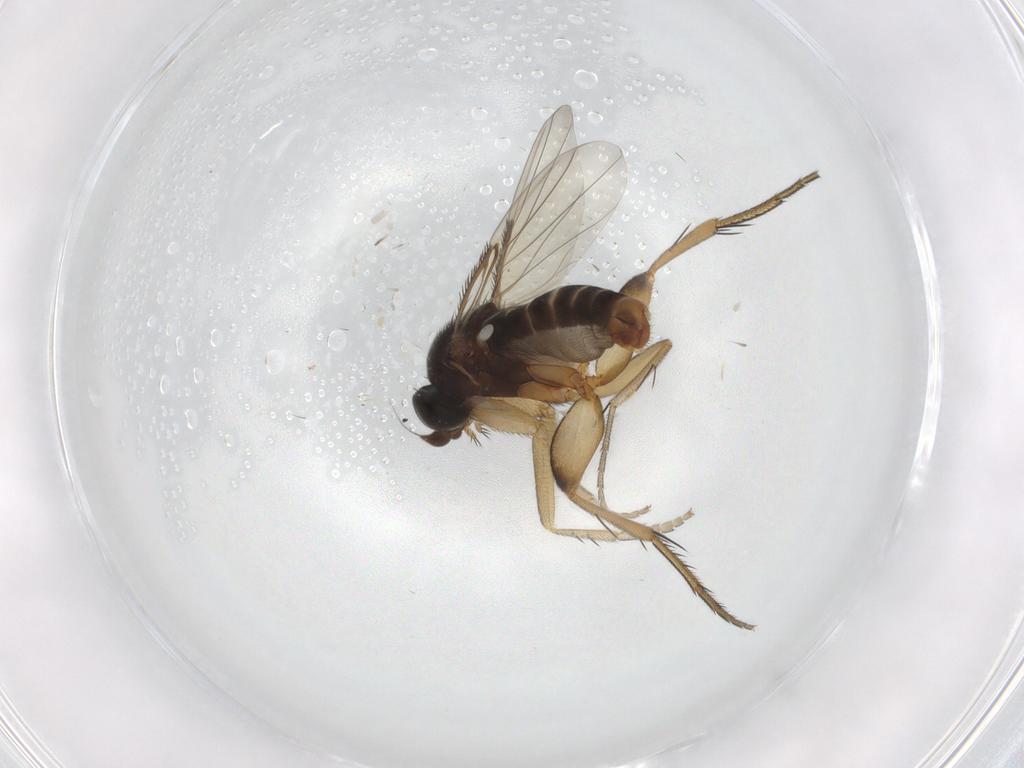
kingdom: Animalia
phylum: Arthropoda
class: Insecta
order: Diptera
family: Phoridae
